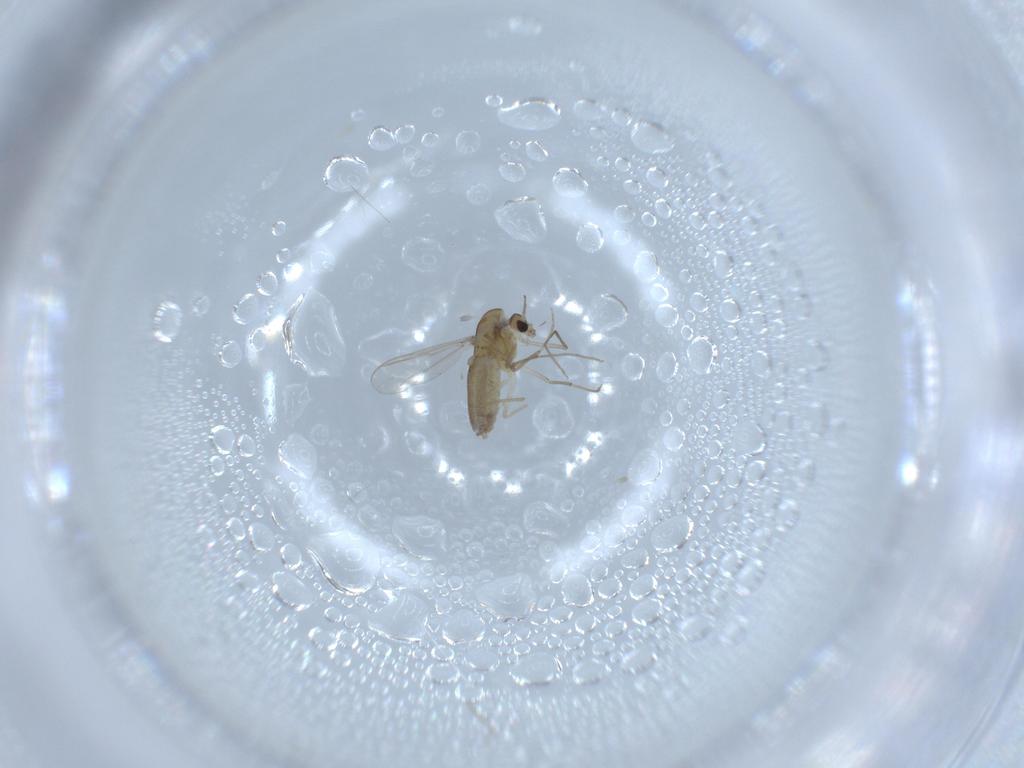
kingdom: Animalia
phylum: Arthropoda
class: Insecta
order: Diptera
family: Chironomidae
